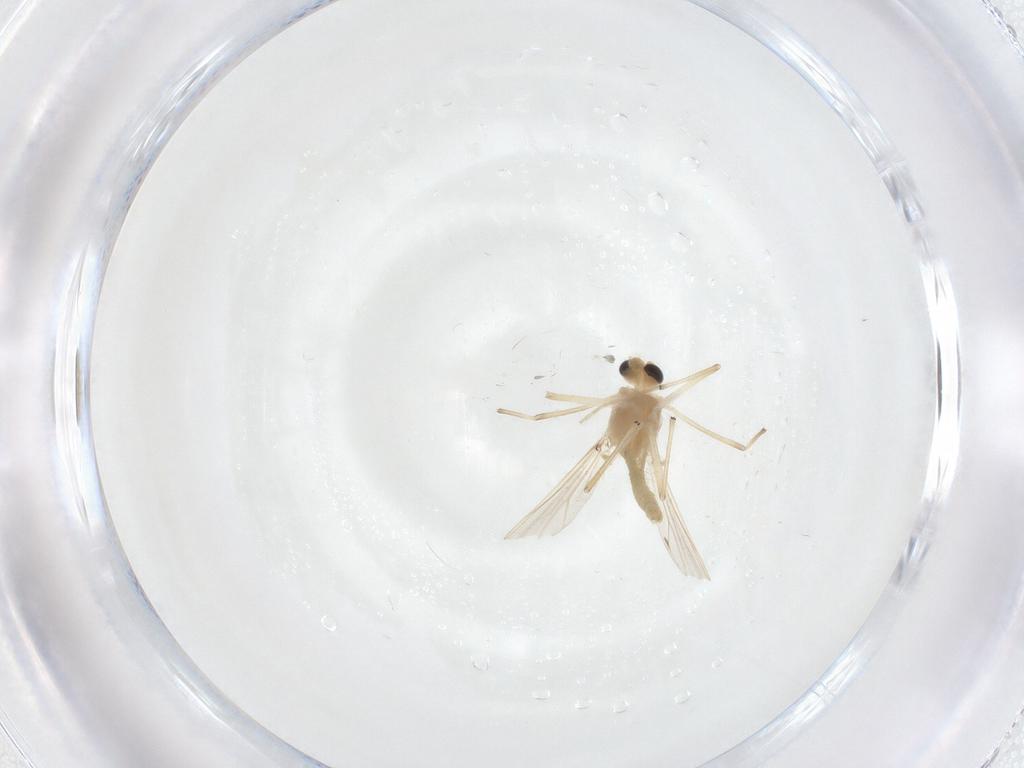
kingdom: Animalia
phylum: Arthropoda
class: Insecta
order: Diptera
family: Chironomidae
